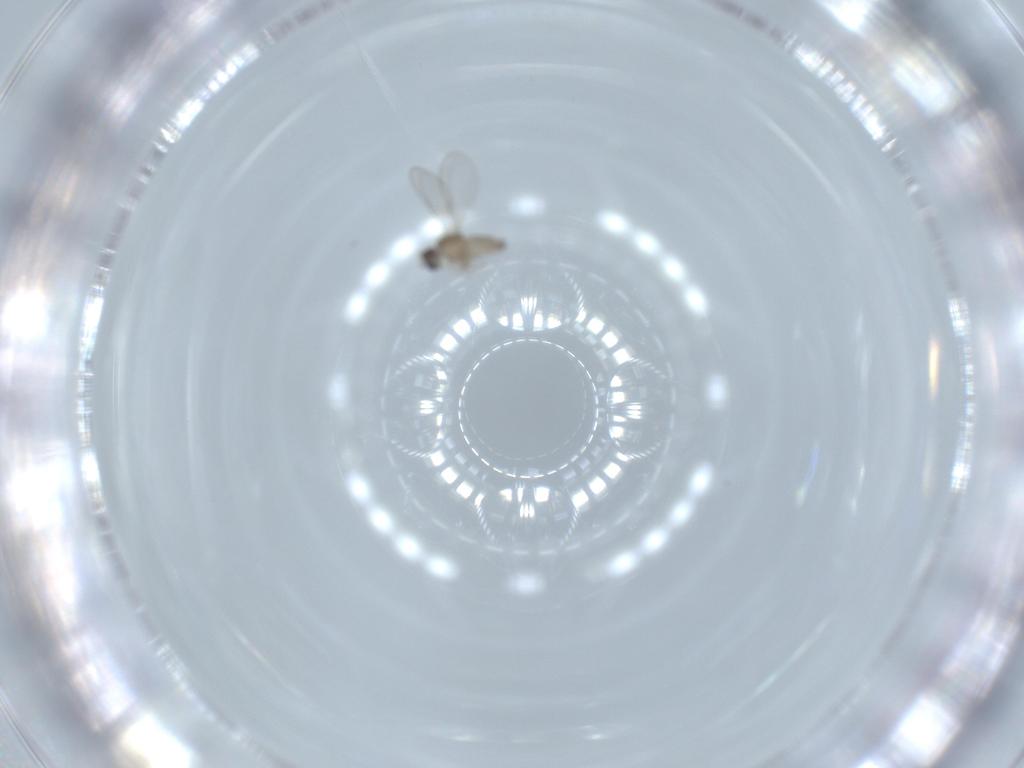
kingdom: Animalia
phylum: Arthropoda
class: Insecta
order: Diptera
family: Cecidomyiidae
